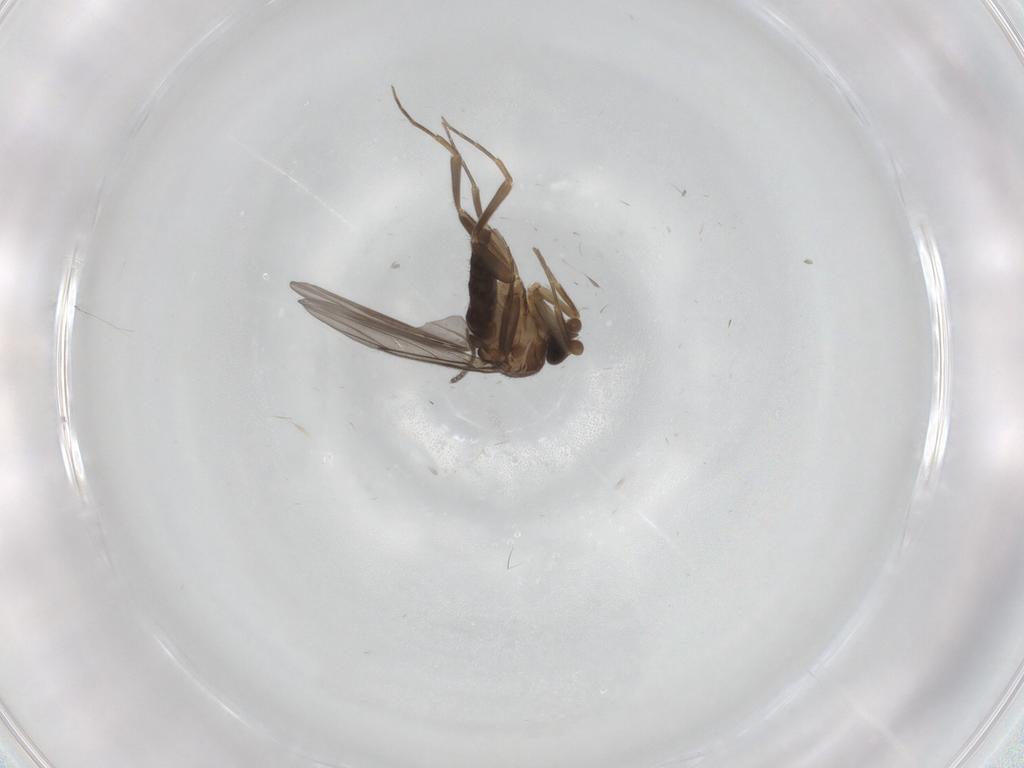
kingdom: Animalia
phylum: Arthropoda
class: Insecta
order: Diptera
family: Sciaridae
